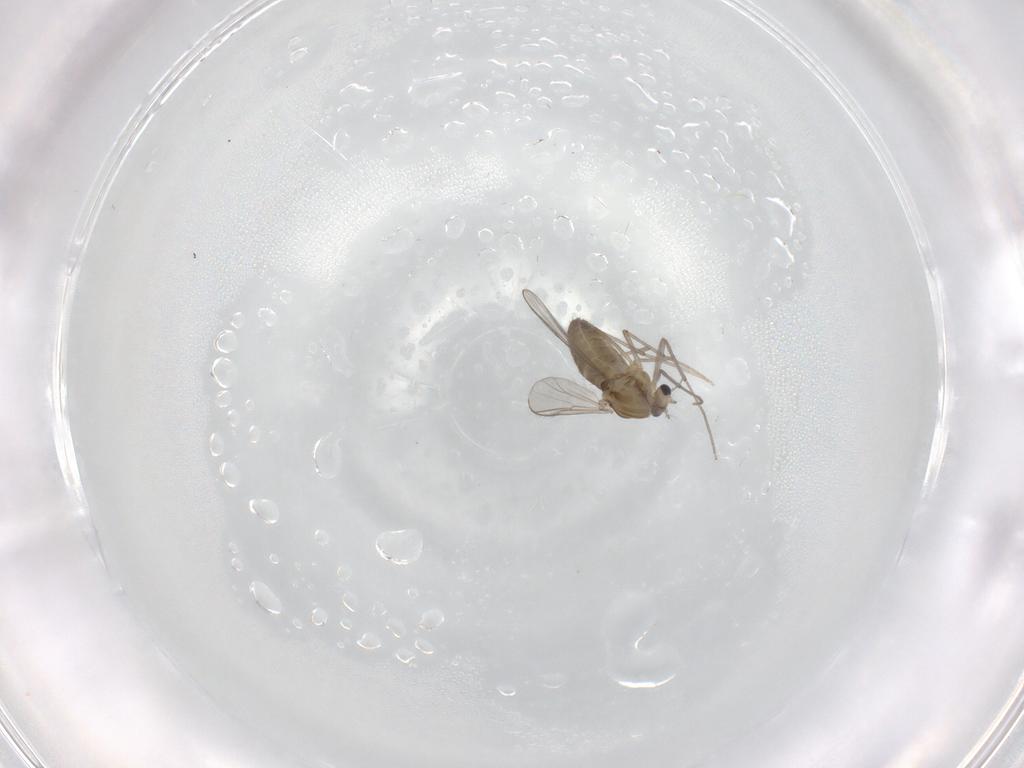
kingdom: Animalia
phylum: Arthropoda
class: Insecta
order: Diptera
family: Chironomidae
